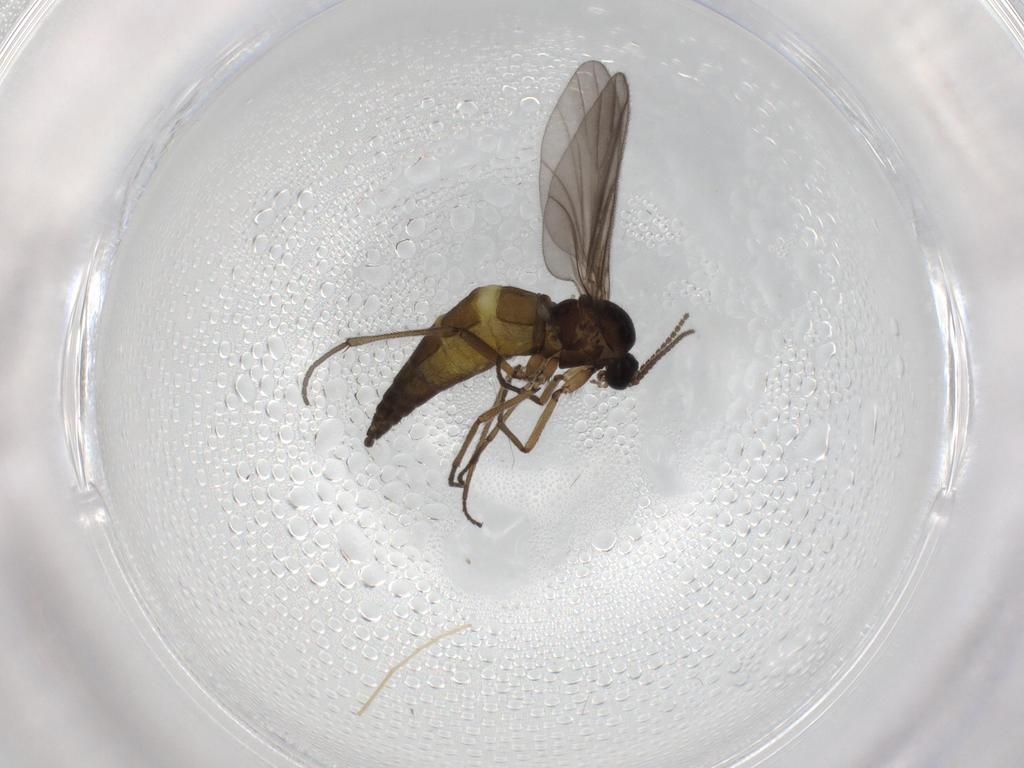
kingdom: Animalia
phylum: Arthropoda
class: Insecta
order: Diptera
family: Sciaridae
